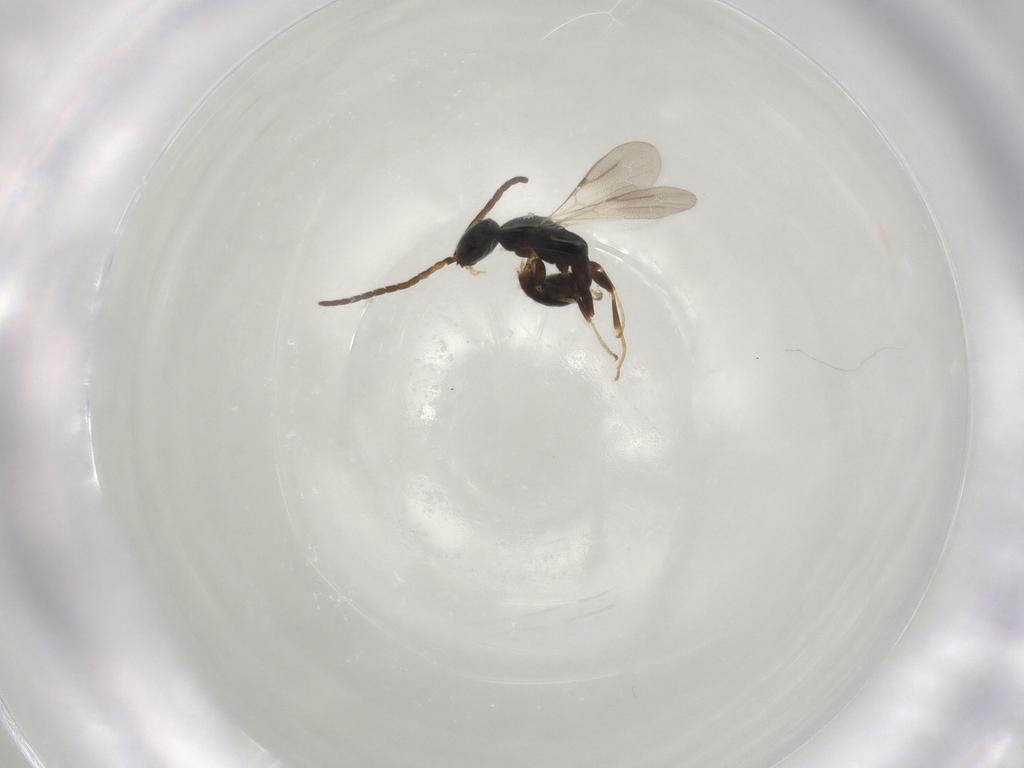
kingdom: Animalia
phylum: Arthropoda
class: Insecta
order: Hymenoptera
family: Bethylidae
